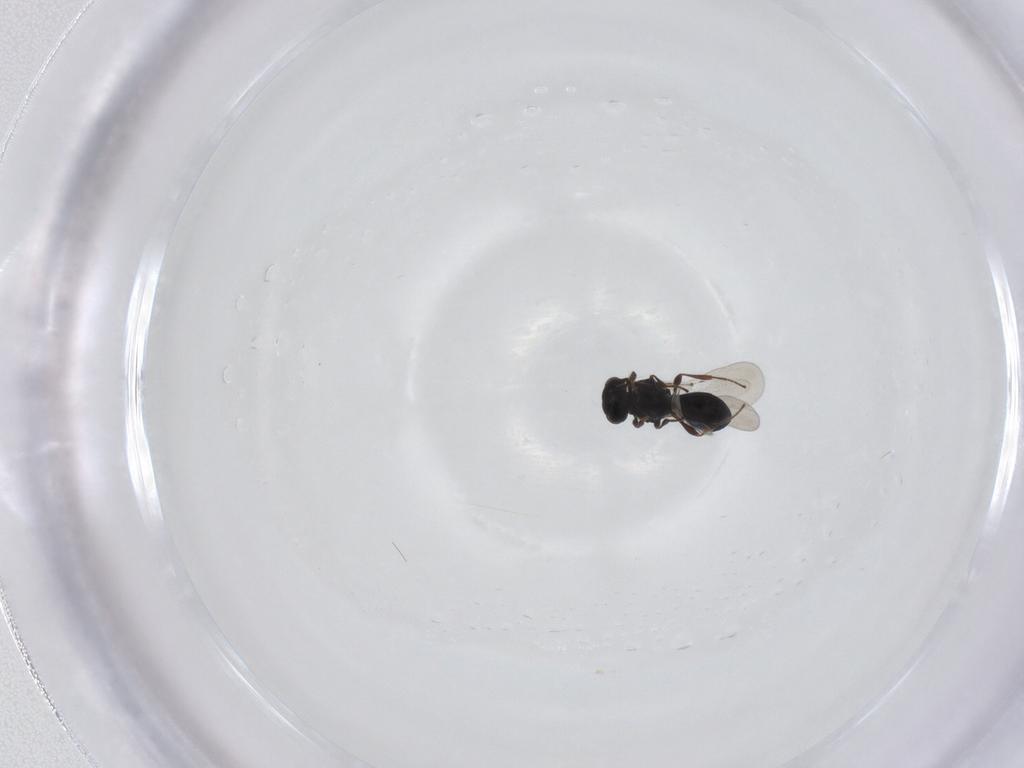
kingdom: Animalia
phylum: Arthropoda
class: Insecta
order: Hymenoptera
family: Platygastridae
